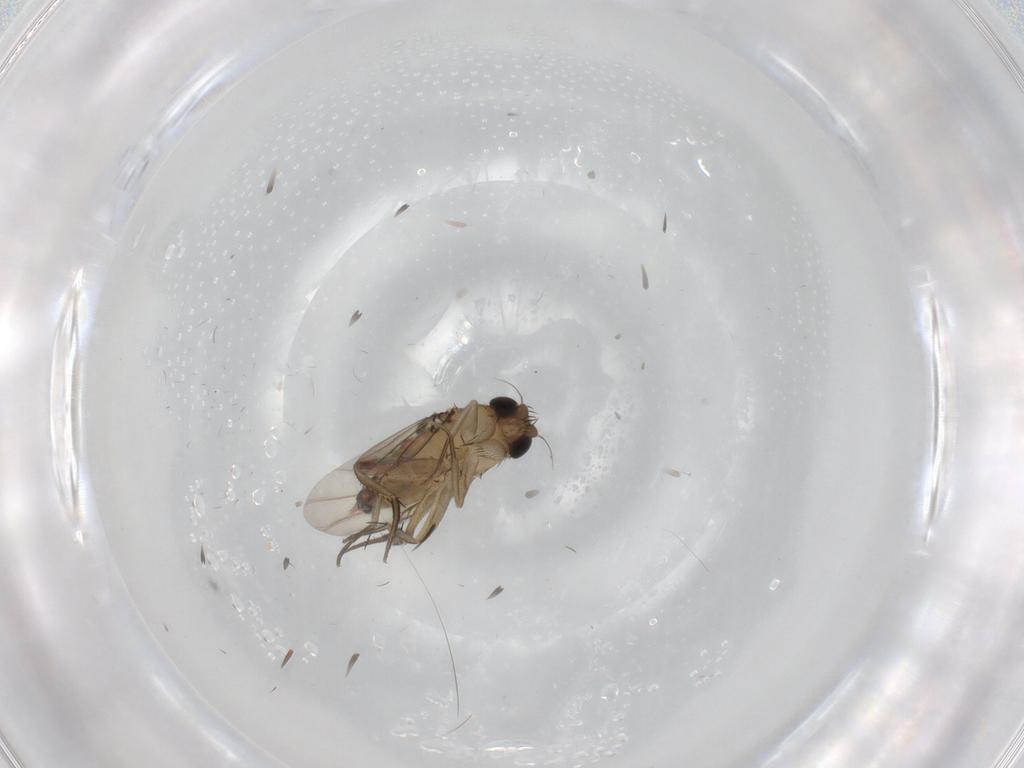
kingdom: Animalia
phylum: Arthropoda
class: Insecta
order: Diptera
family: Phoridae
